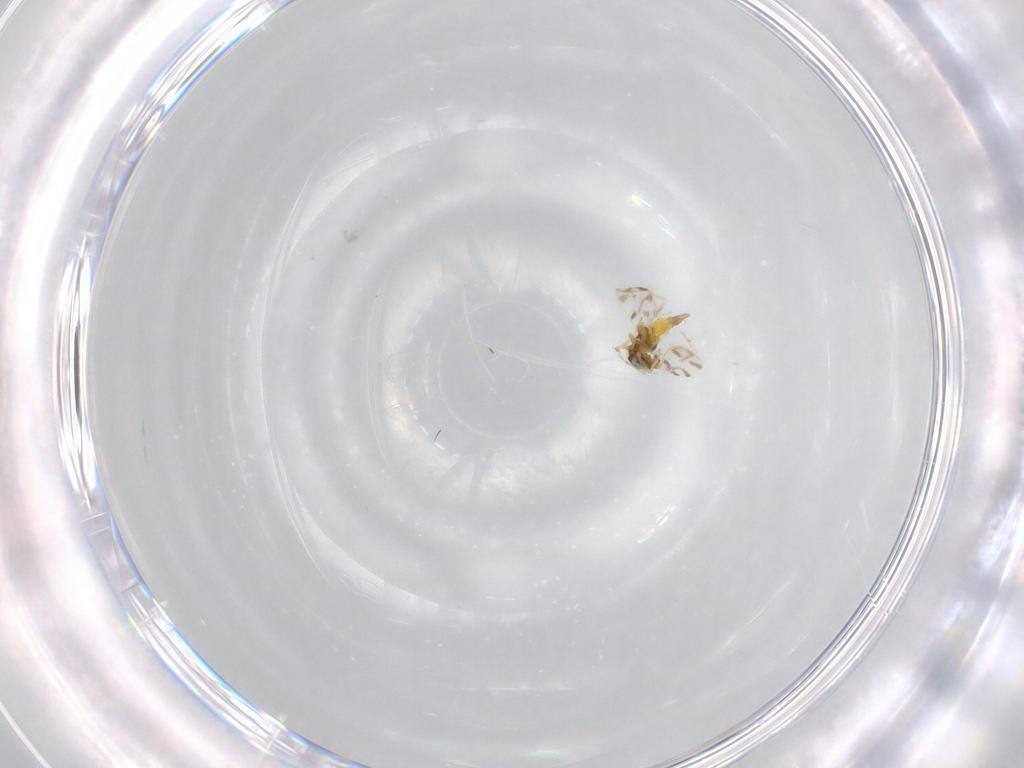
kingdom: Animalia
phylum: Arthropoda
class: Insecta
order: Hemiptera
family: Aleyrodidae
